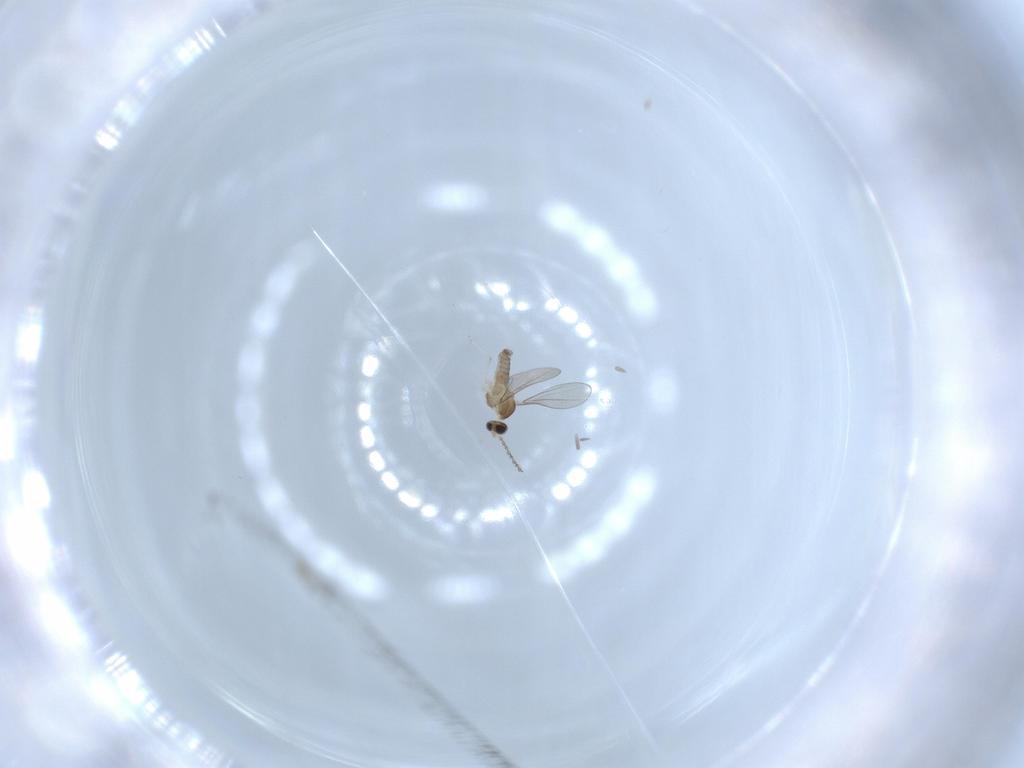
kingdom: Animalia
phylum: Arthropoda
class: Insecta
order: Diptera
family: Cecidomyiidae
